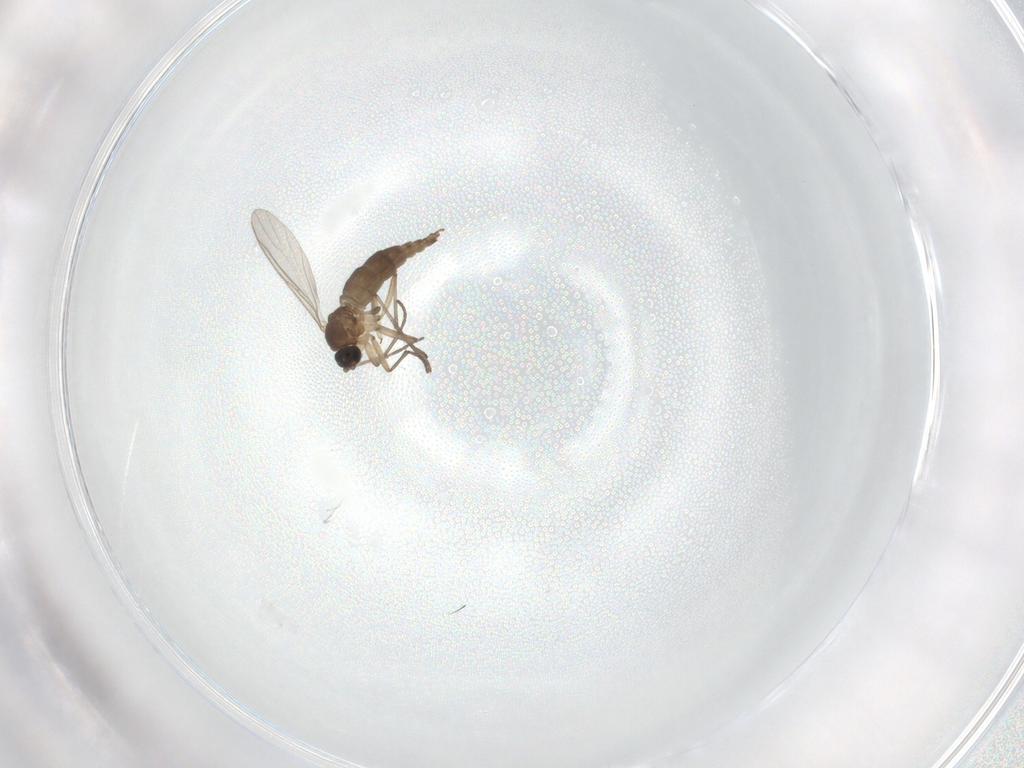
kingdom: Animalia
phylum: Arthropoda
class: Insecta
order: Diptera
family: Sciaridae
